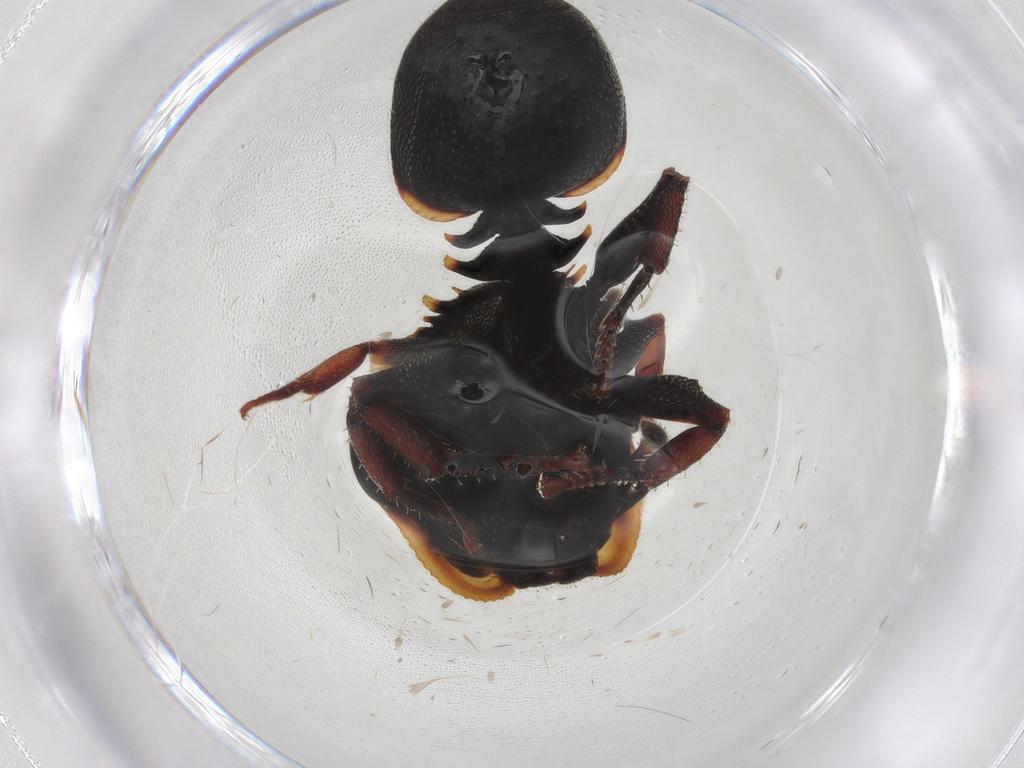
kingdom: Animalia
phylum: Arthropoda
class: Insecta
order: Hymenoptera
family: Formicidae
